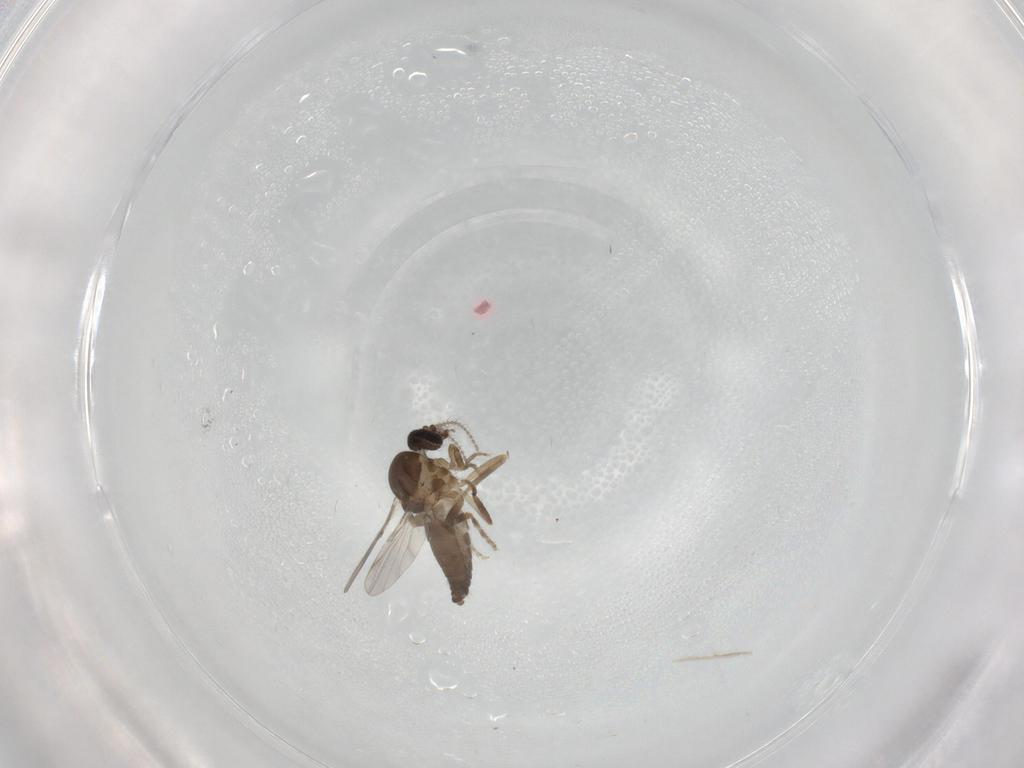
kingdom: Animalia
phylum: Arthropoda
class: Insecta
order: Diptera
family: Ceratopogonidae
